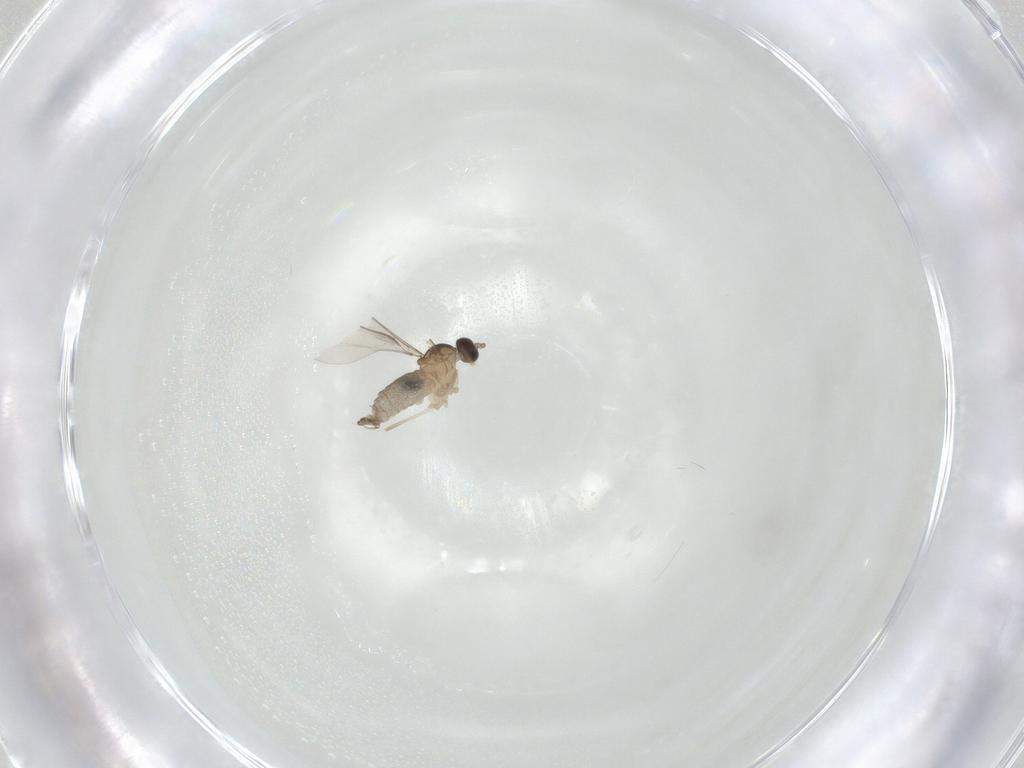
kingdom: Animalia
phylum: Arthropoda
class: Insecta
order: Diptera
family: Cecidomyiidae
